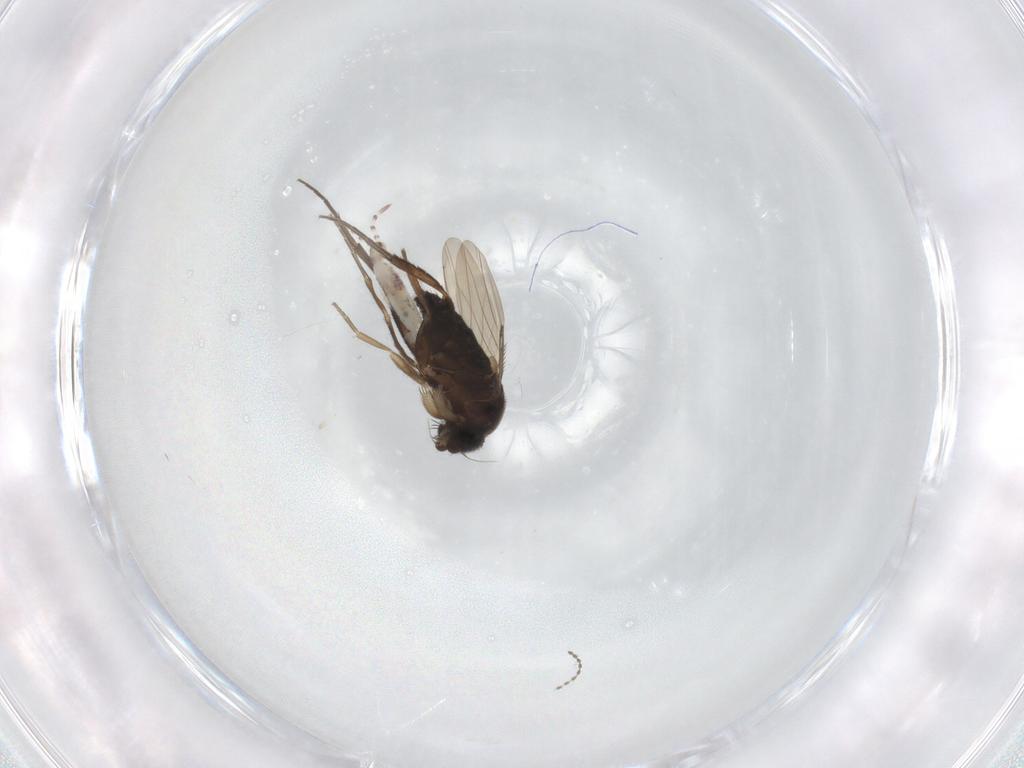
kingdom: Animalia
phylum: Arthropoda
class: Insecta
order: Diptera
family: Phoridae
